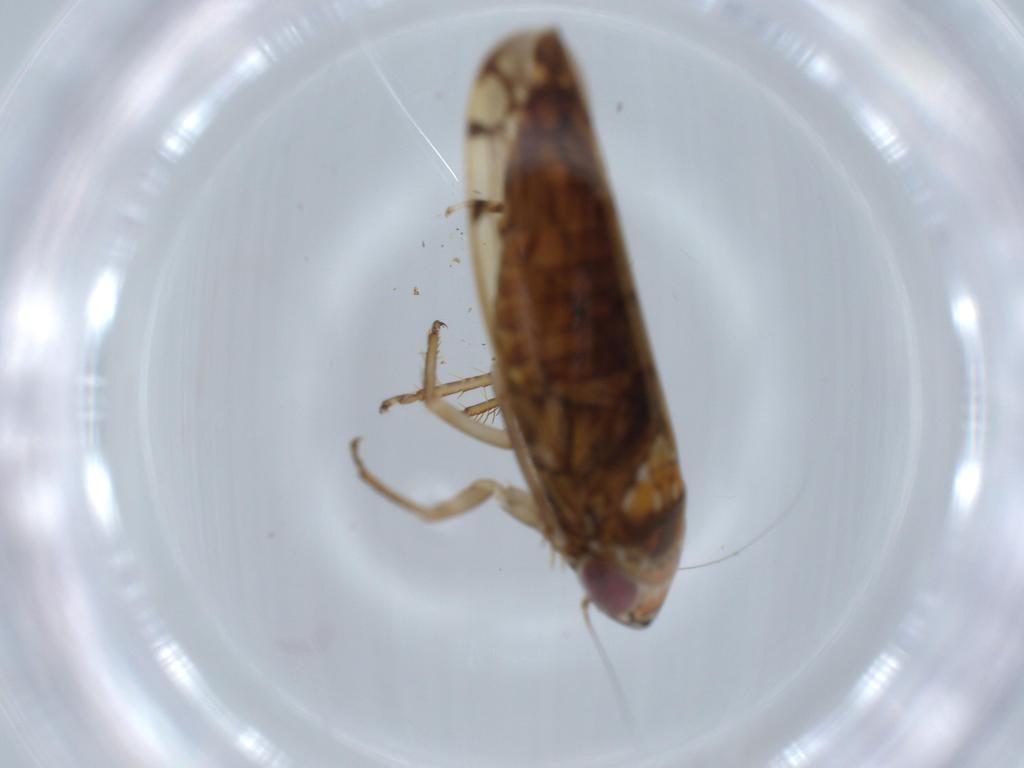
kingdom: Animalia
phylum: Arthropoda
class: Insecta
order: Hemiptera
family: Cicadellidae
